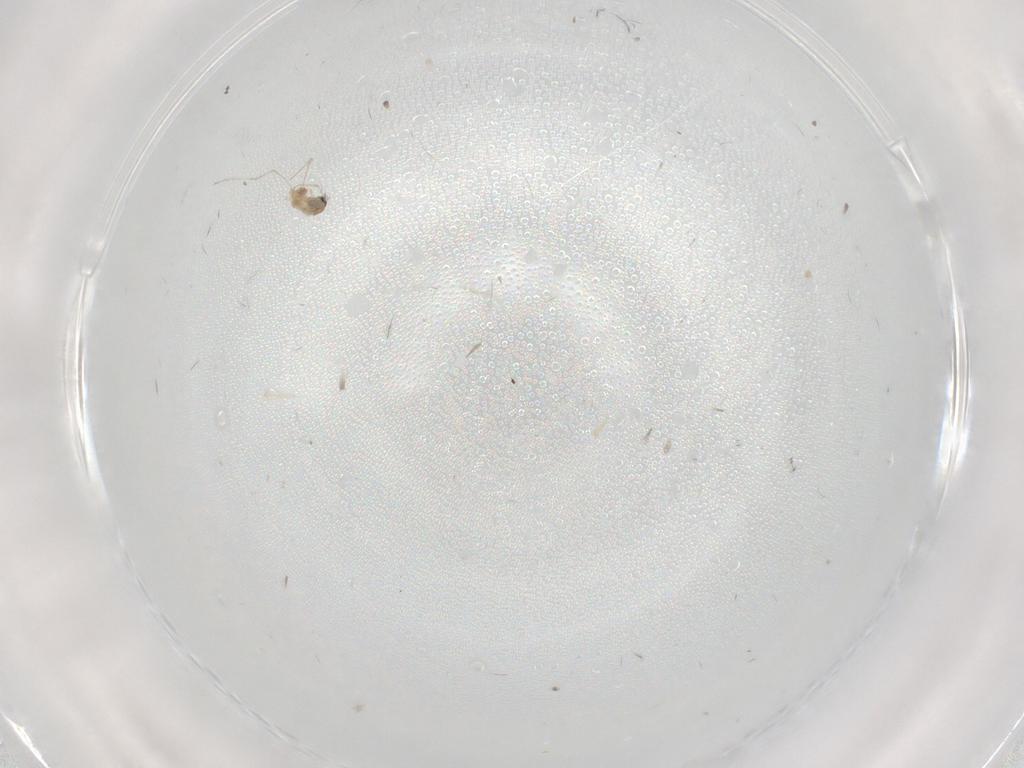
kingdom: Animalia
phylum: Arthropoda
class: Insecta
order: Diptera
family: Cecidomyiidae
